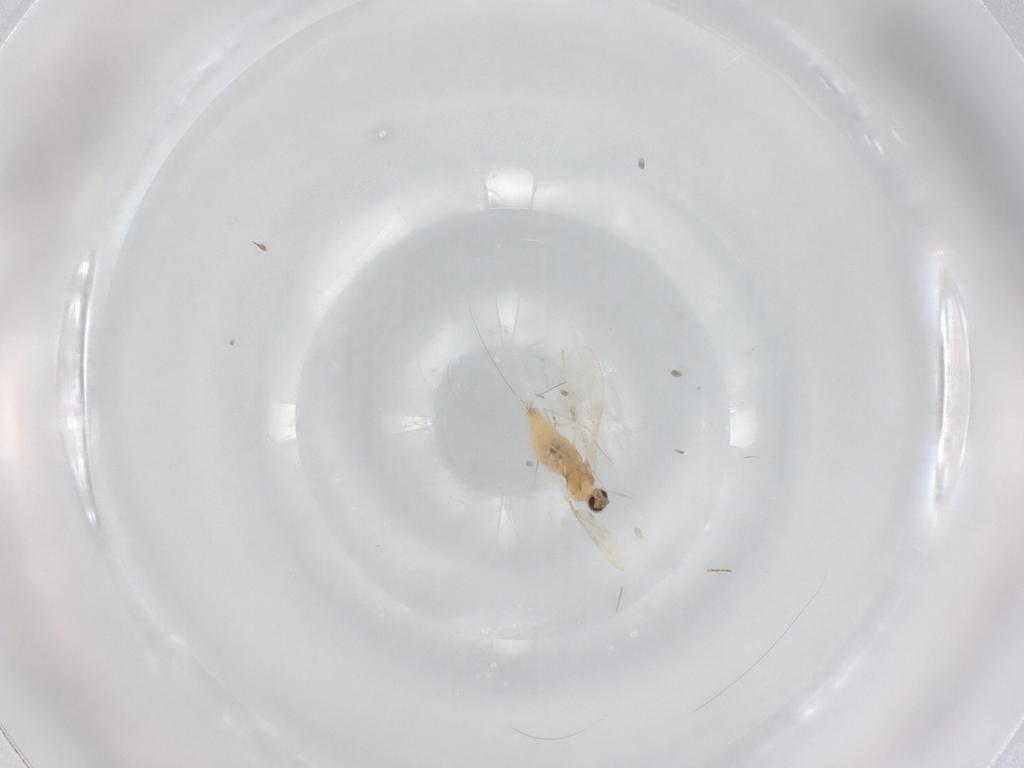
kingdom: Animalia
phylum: Arthropoda
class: Insecta
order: Diptera
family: Cecidomyiidae
